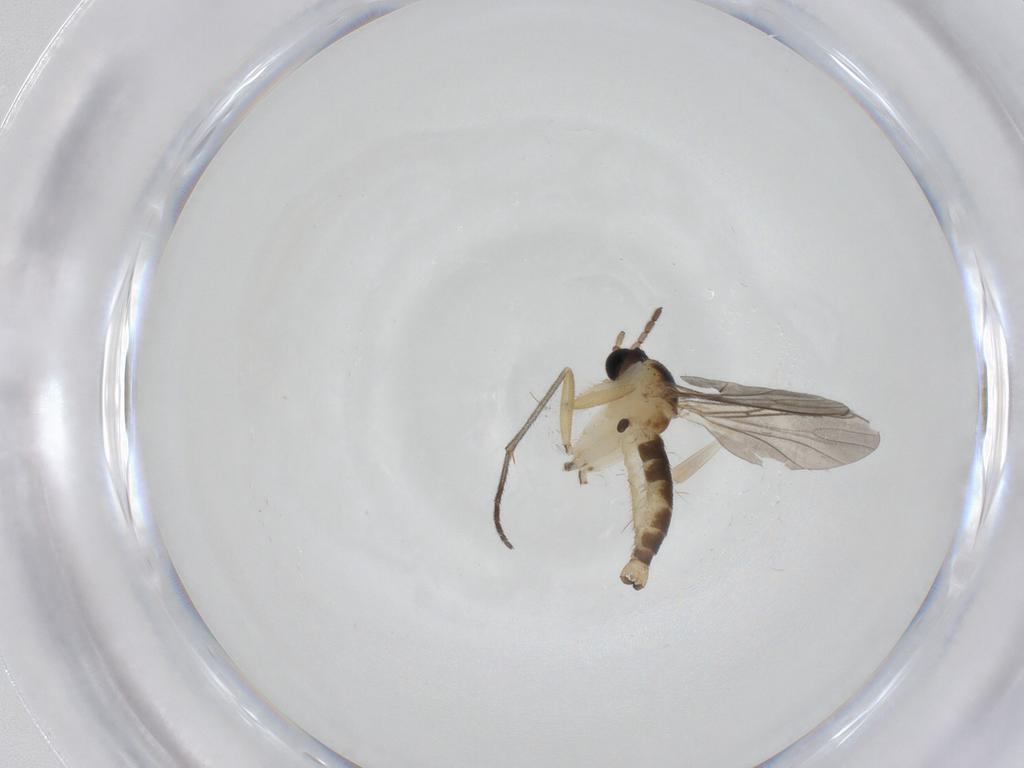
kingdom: Animalia
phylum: Arthropoda
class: Insecta
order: Diptera
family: Sciaridae
